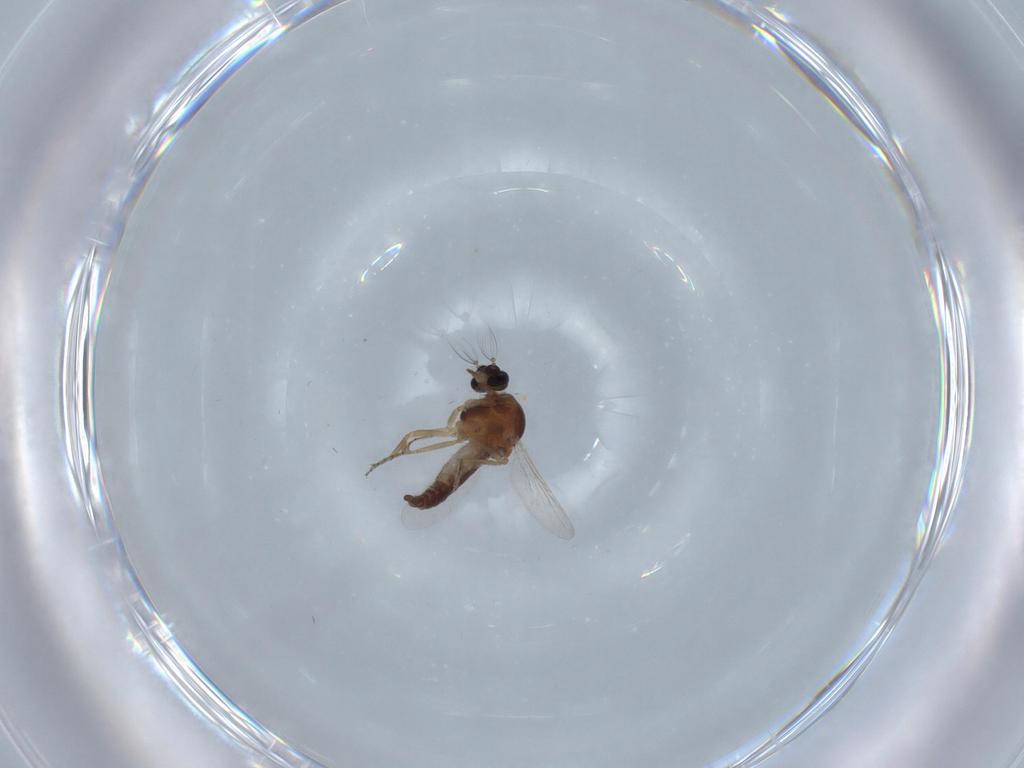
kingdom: Animalia
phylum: Arthropoda
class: Insecta
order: Diptera
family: Ceratopogonidae
